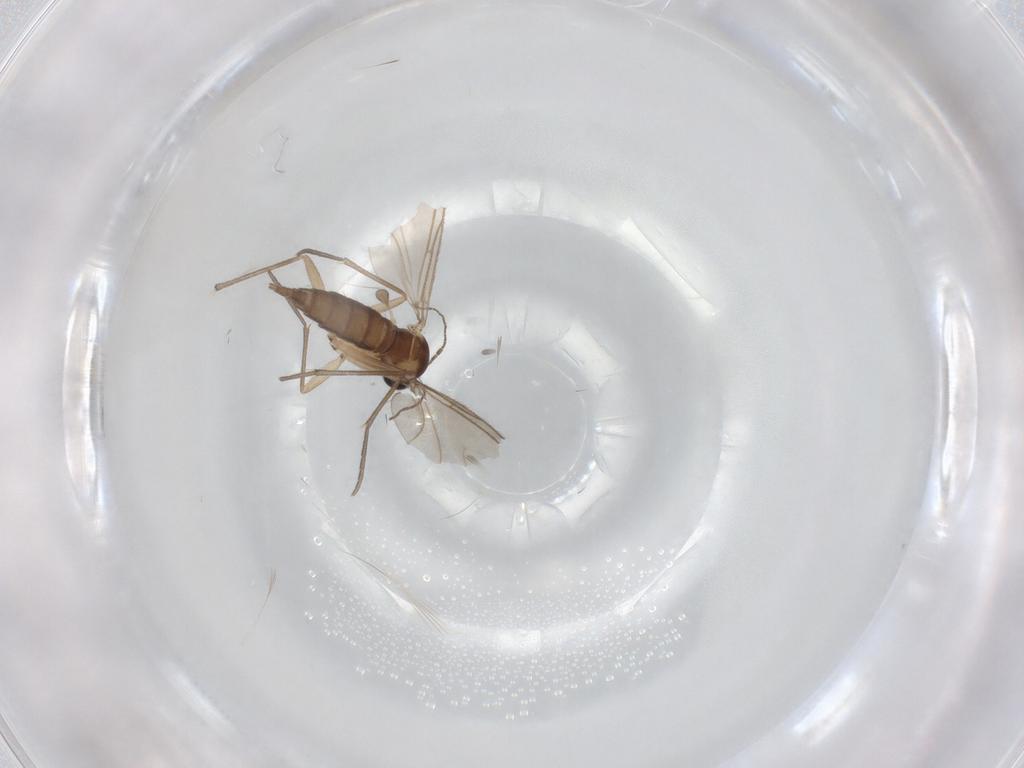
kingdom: Animalia
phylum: Arthropoda
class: Insecta
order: Diptera
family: Sciaridae
